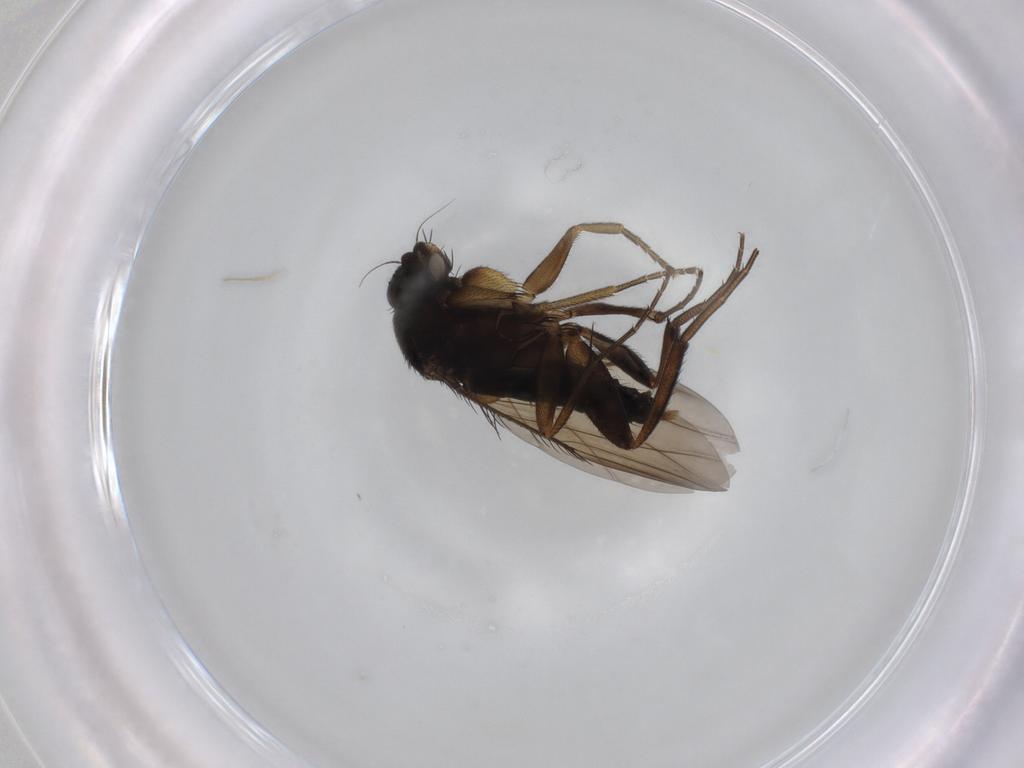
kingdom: Animalia
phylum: Arthropoda
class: Insecta
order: Diptera
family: Phoridae
